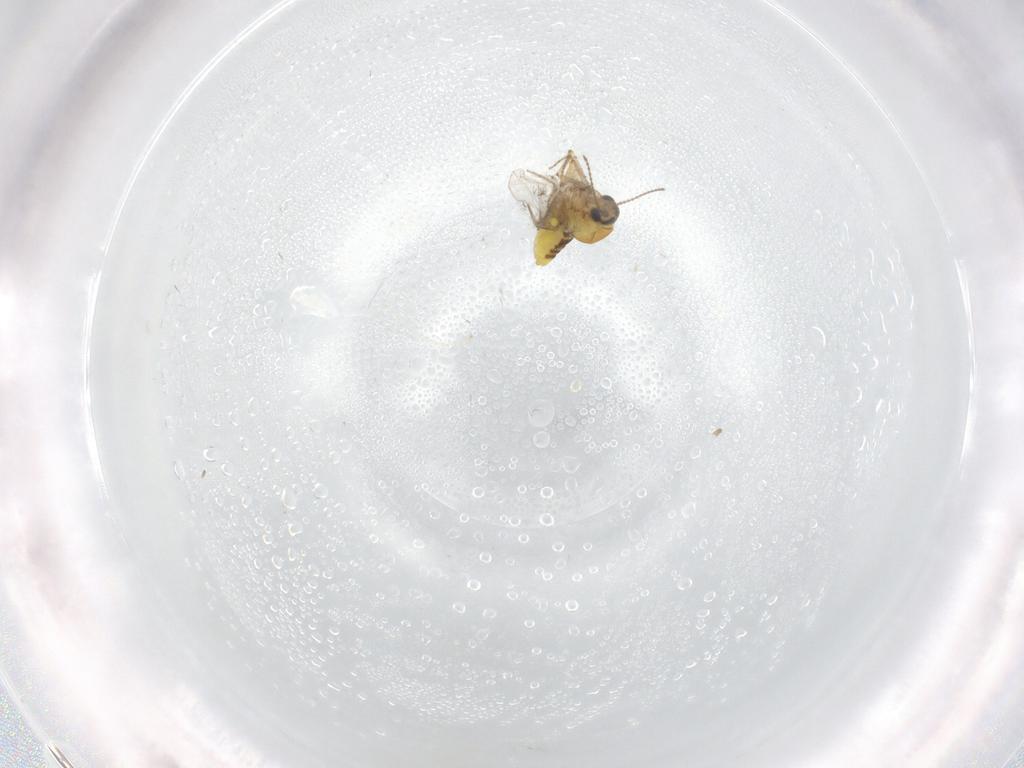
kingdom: Animalia
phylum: Arthropoda
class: Insecta
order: Diptera
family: Ceratopogonidae
